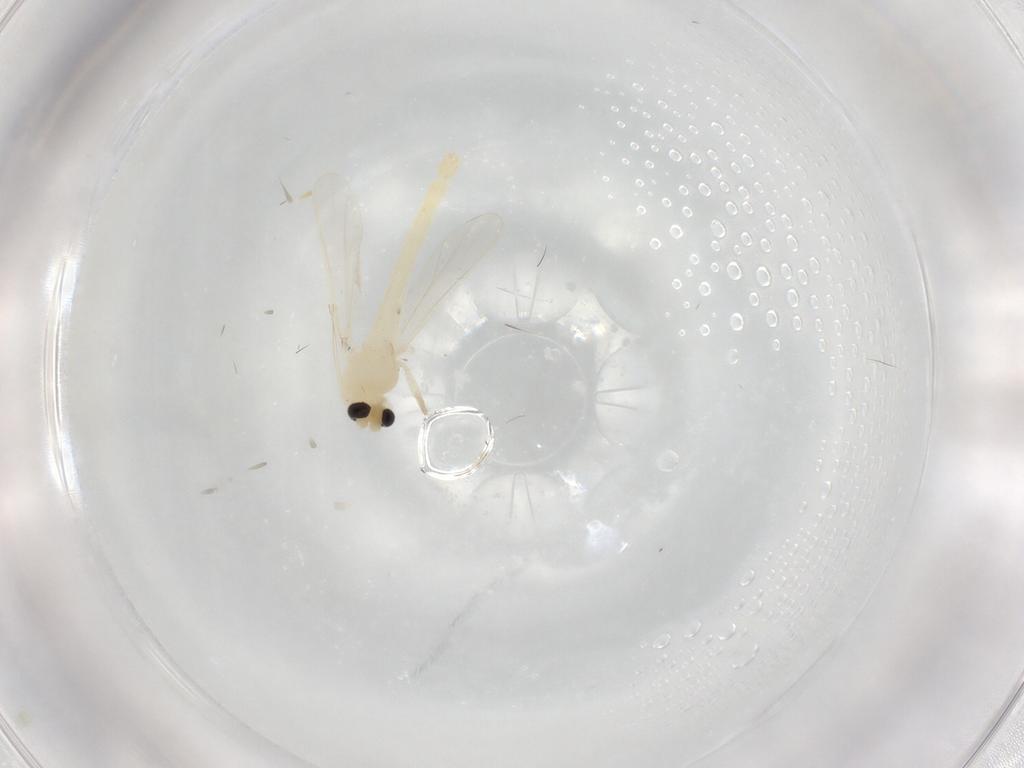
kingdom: Animalia
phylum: Arthropoda
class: Insecta
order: Diptera
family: Chironomidae
